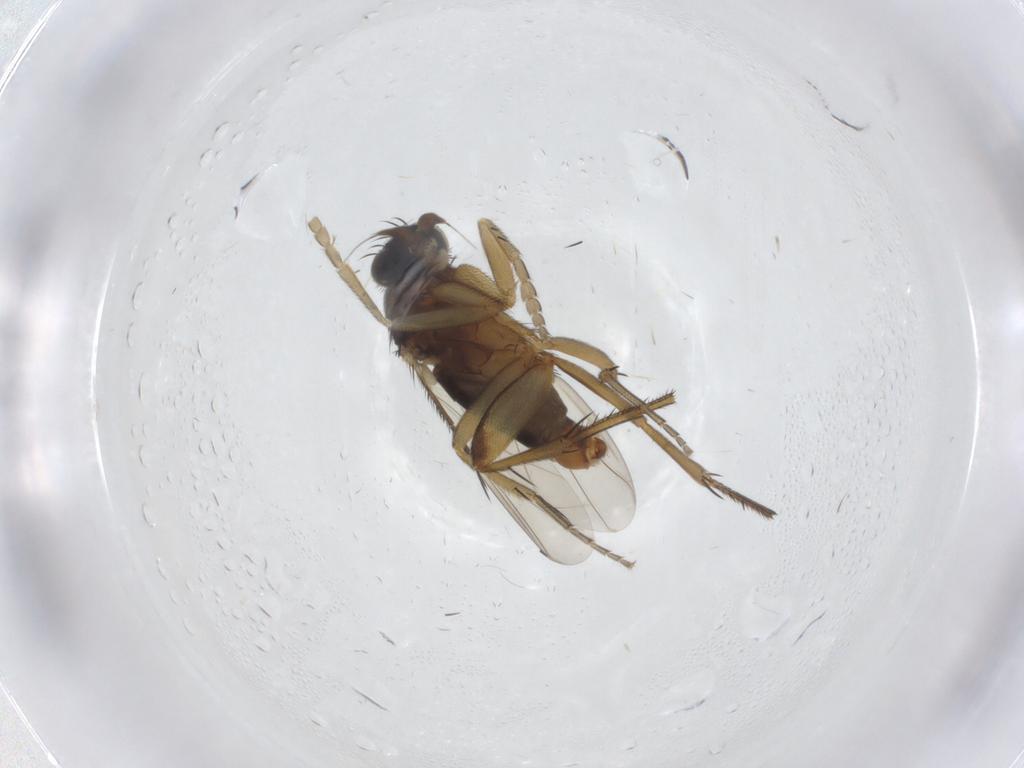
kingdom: Animalia
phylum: Arthropoda
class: Insecta
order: Diptera
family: Phoridae
